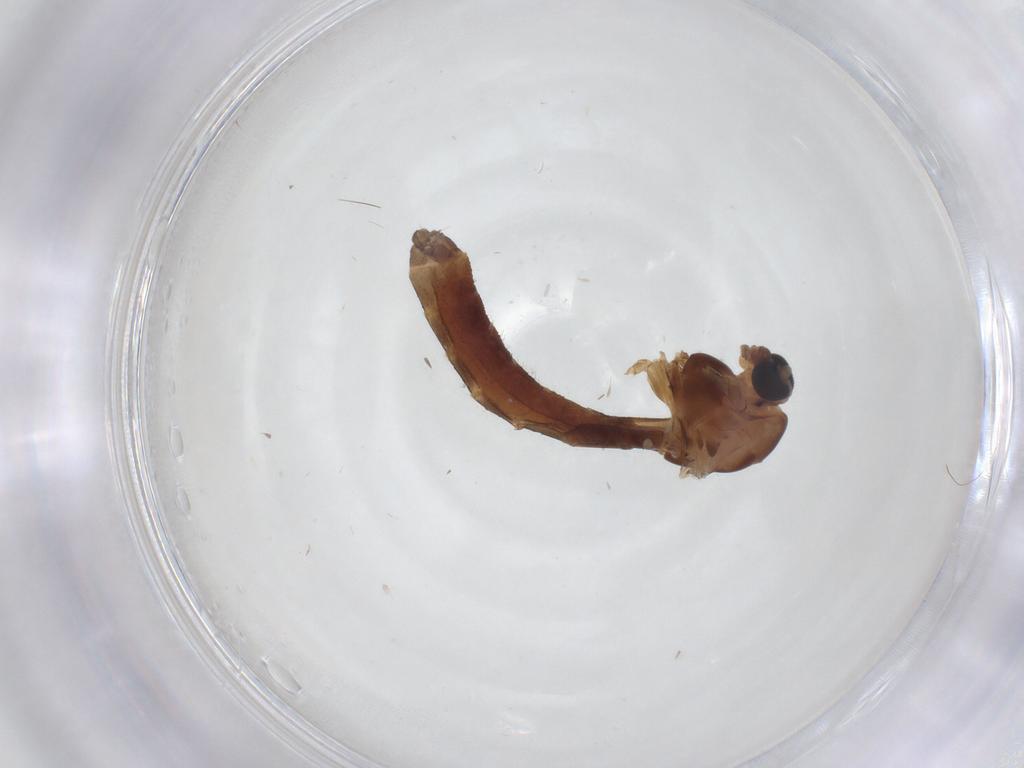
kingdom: Animalia
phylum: Arthropoda
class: Insecta
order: Diptera
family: Chironomidae
